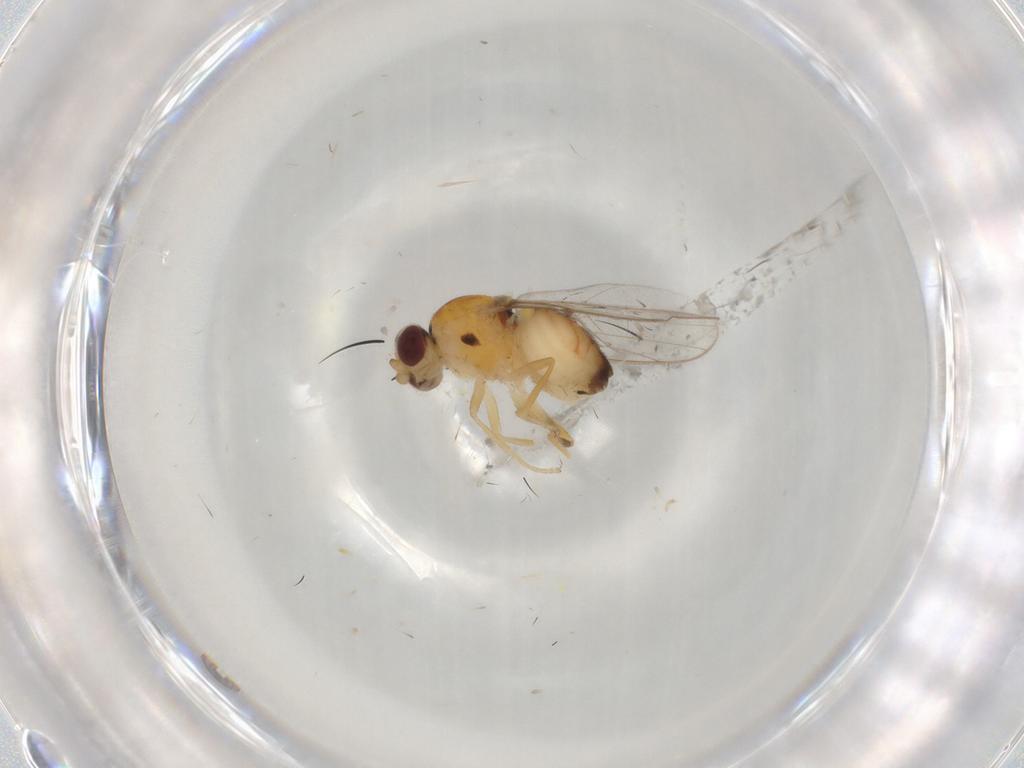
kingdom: Animalia
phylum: Arthropoda
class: Insecta
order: Diptera
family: Chloropidae
